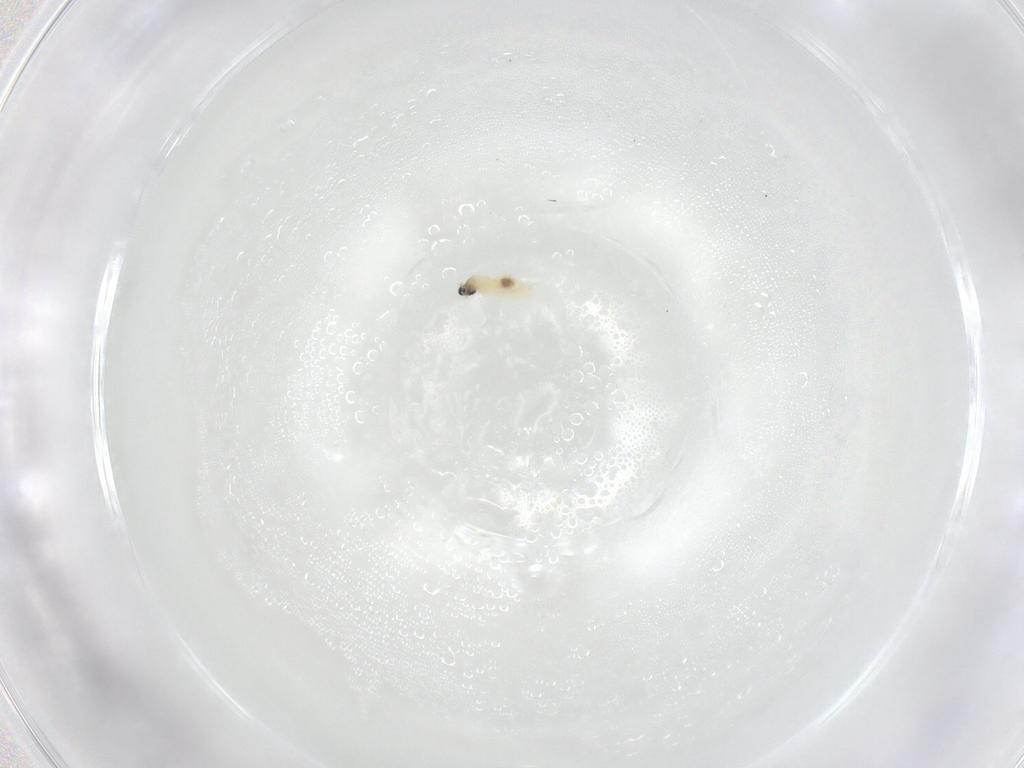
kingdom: Animalia
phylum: Arthropoda
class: Insecta
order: Diptera
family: Cecidomyiidae
